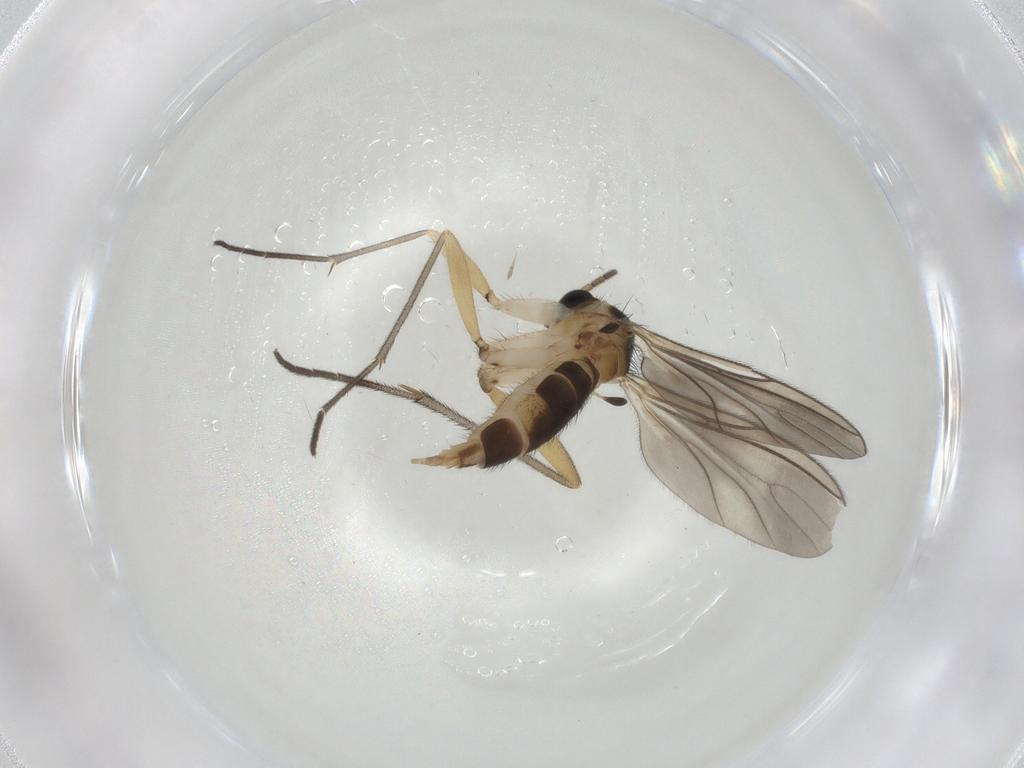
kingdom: Animalia
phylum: Arthropoda
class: Insecta
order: Diptera
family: Sciaridae
